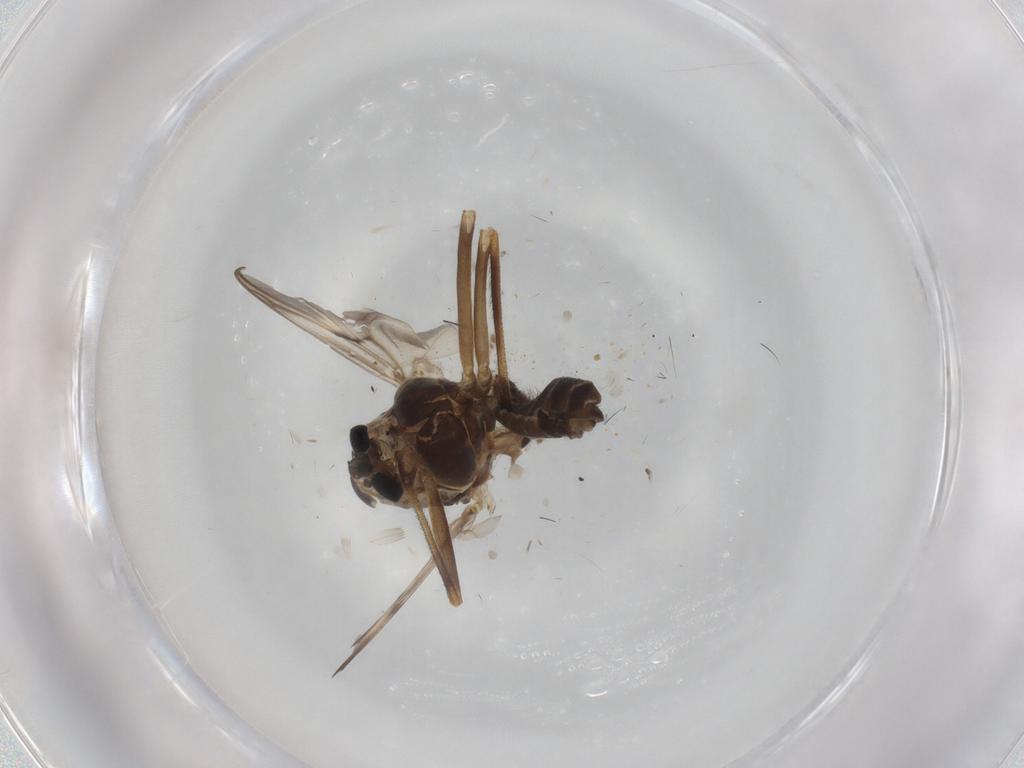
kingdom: Animalia
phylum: Arthropoda
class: Insecta
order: Diptera
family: Chironomidae
